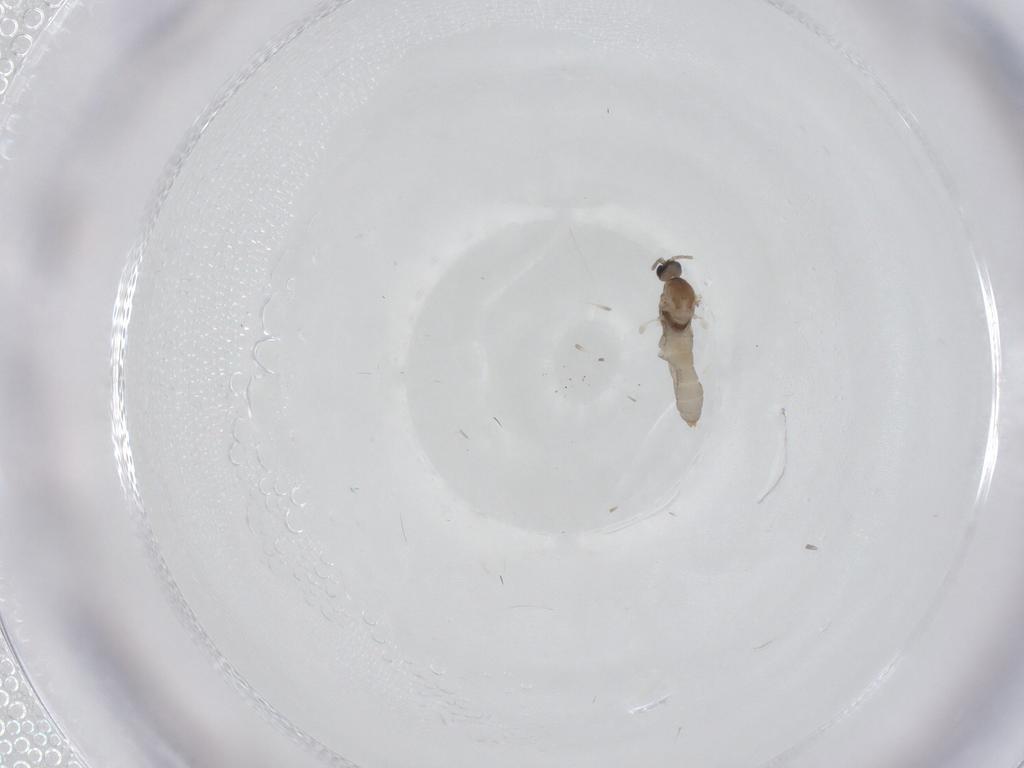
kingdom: Animalia
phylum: Arthropoda
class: Insecta
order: Diptera
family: Cecidomyiidae
